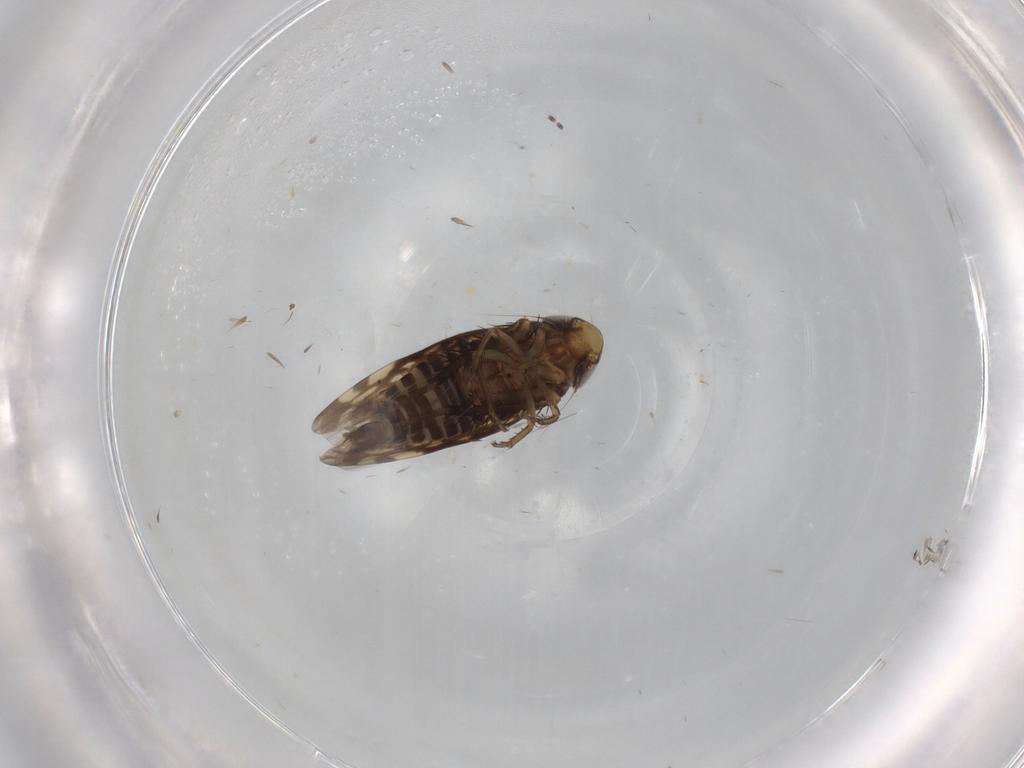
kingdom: Animalia
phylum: Arthropoda
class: Insecta
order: Hemiptera
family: Cicadellidae
